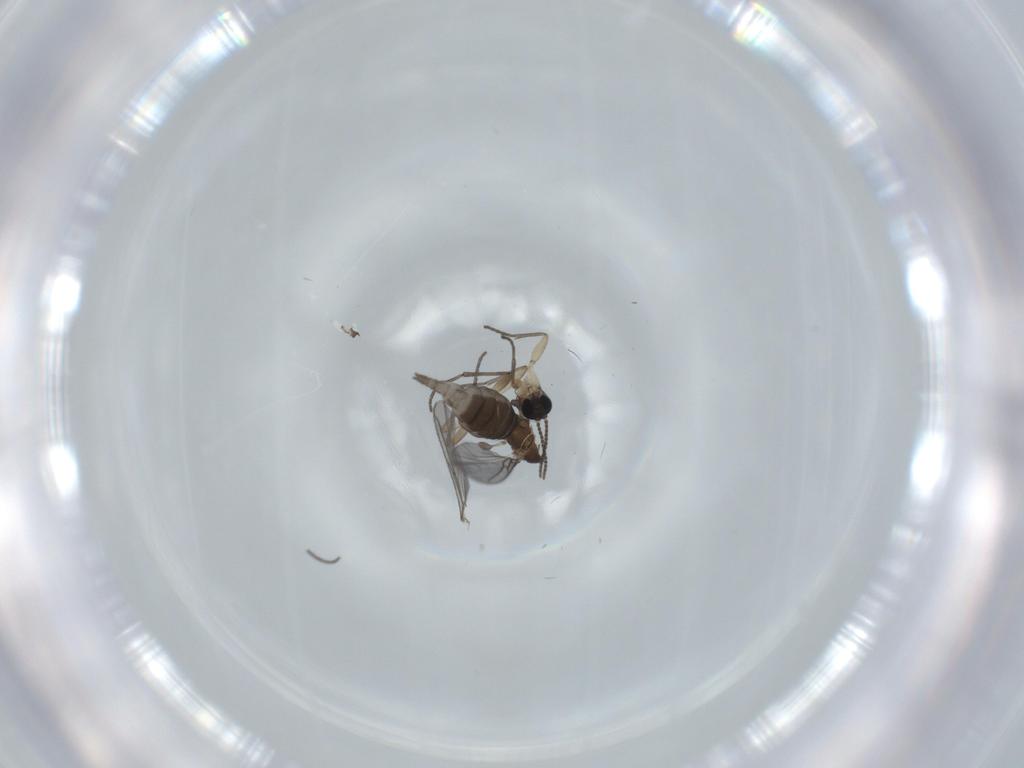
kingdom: Animalia
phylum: Arthropoda
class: Insecta
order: Diptera
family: Sciaridae
